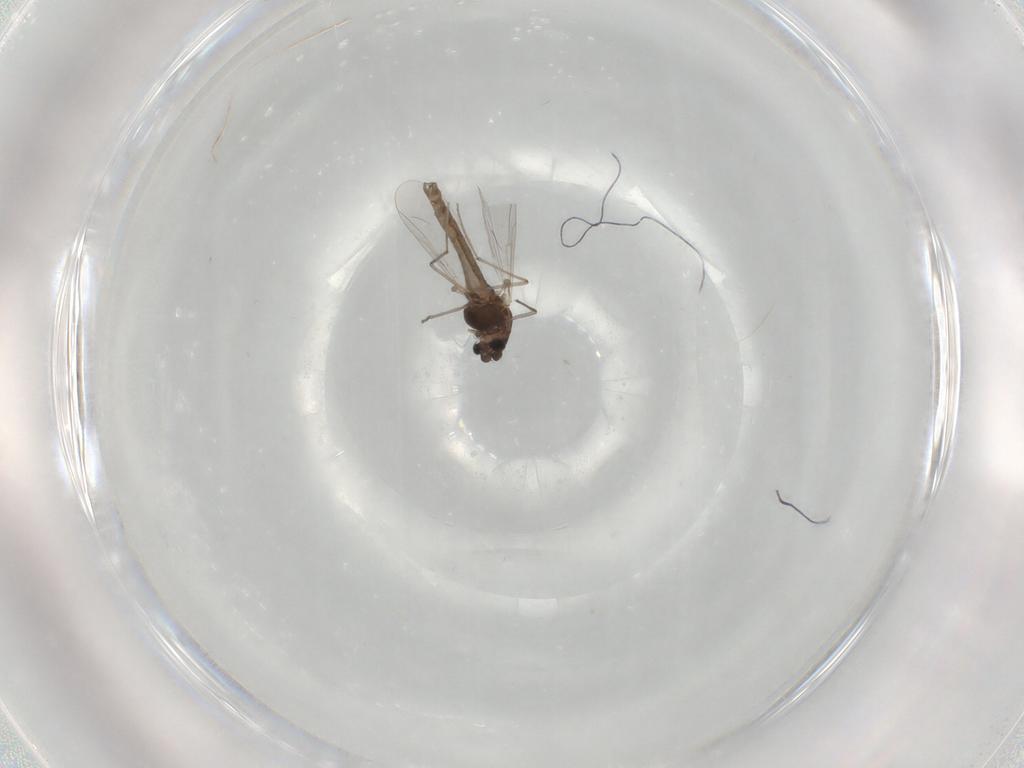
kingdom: Animalia
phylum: Arthropoda
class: Insecta
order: Diptera
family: Chironomidae
